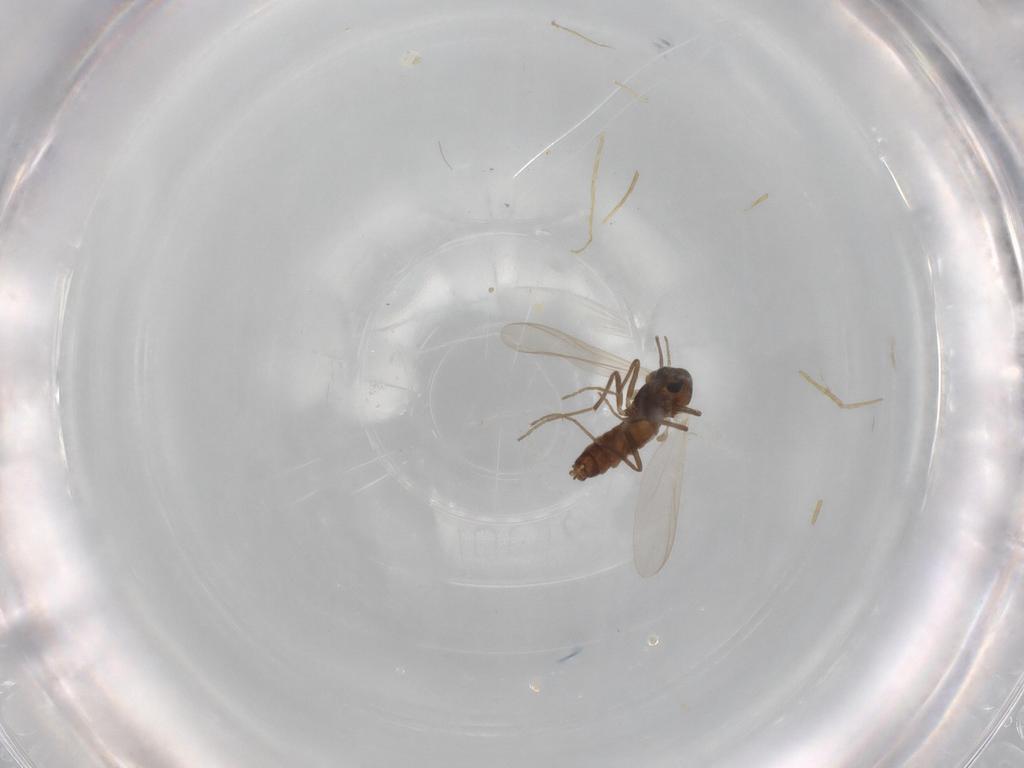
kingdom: Animalia
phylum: Arthropoda
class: Insecta
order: Diptera
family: Chironomidae
